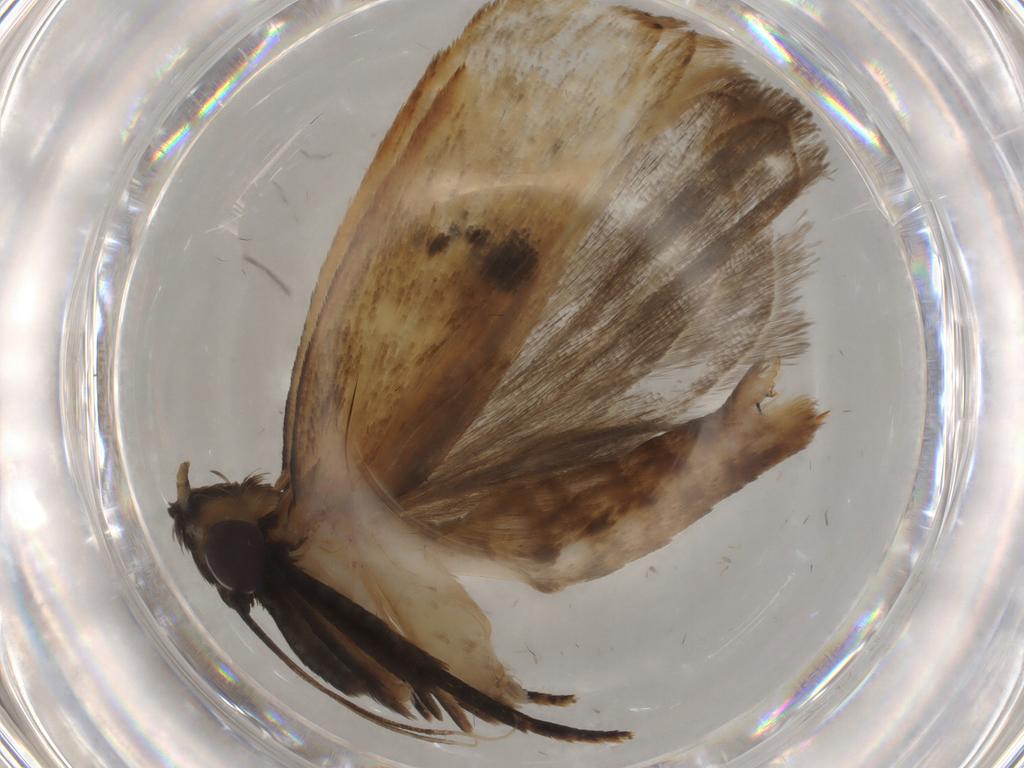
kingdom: Animalia
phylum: Arthropoda
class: Insecta
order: Lepidoptera
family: Gelechiidae
